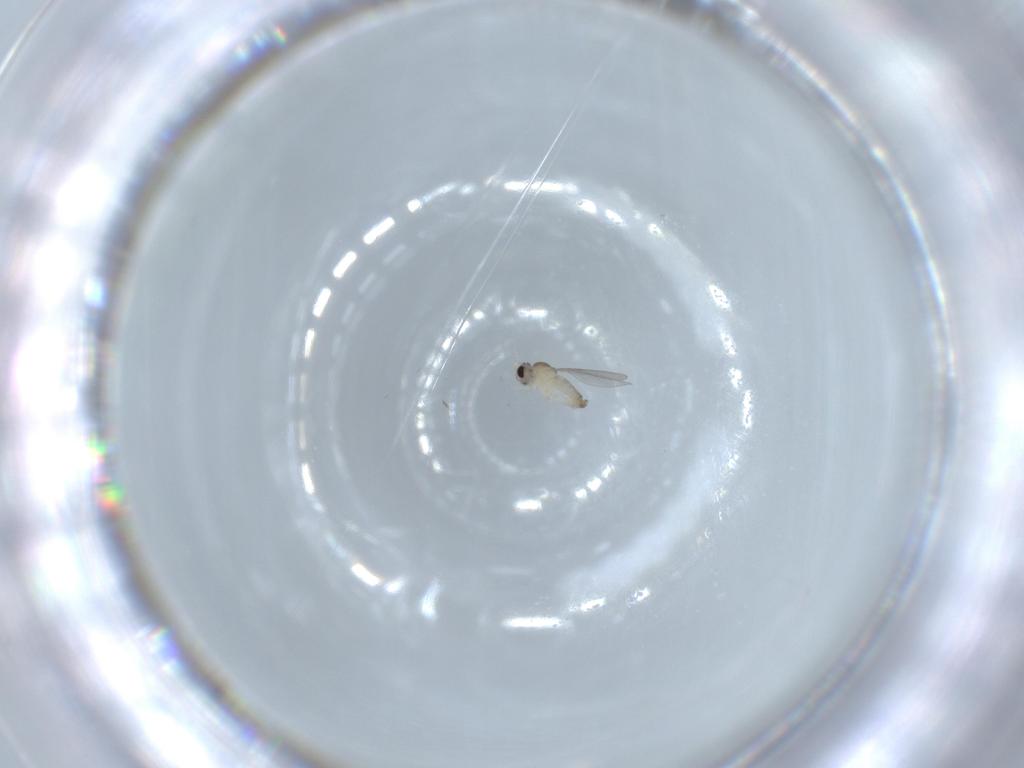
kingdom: Animalia
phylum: Arthropoda
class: Insecta
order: Diptera
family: Cecidomyiidae
